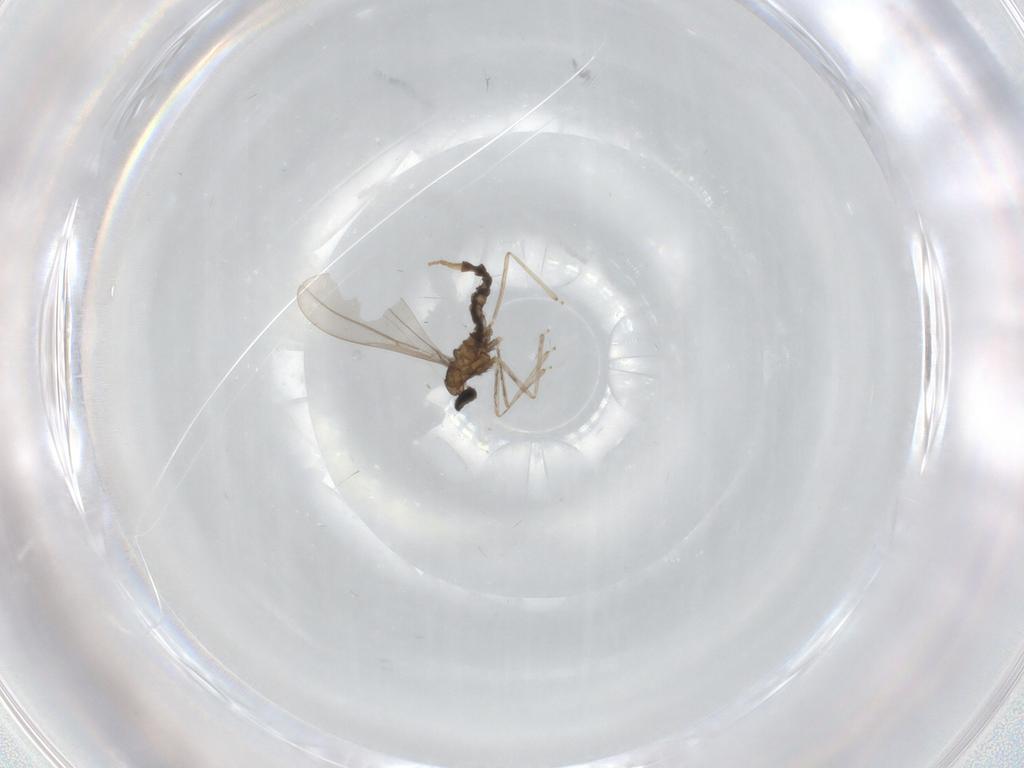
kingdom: Animalia
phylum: Arthropoda
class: Insecta
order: Diptera
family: Cecidomyiidae
